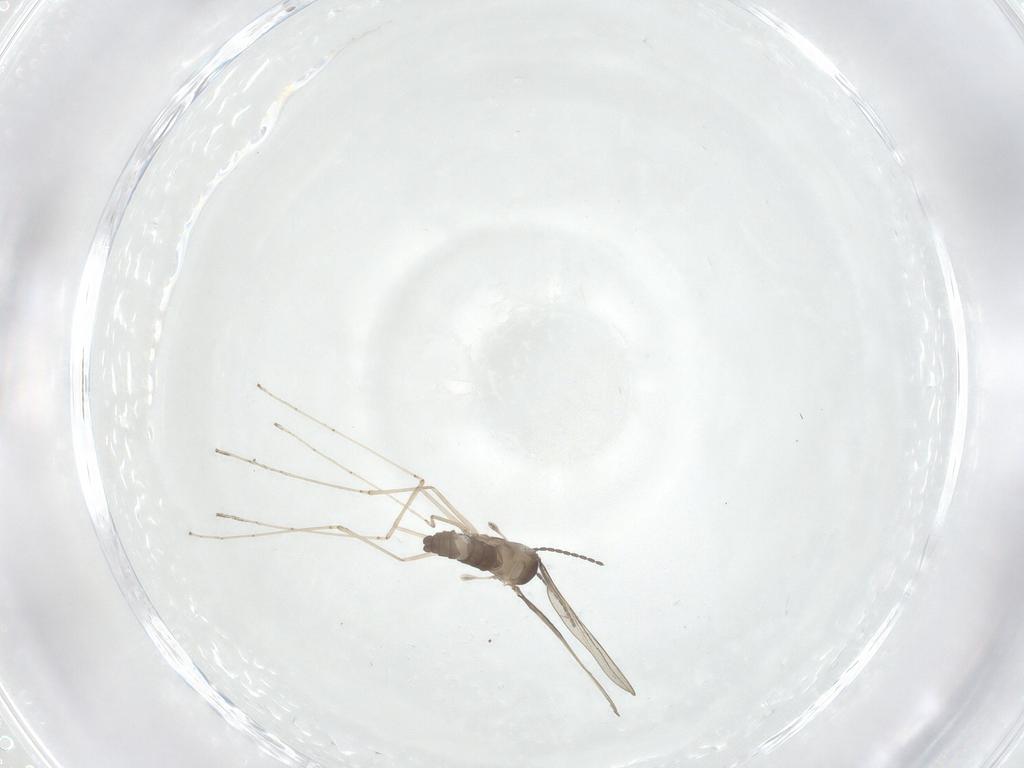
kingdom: Animalia
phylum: Arthropoda
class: Insecta
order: Diptera
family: Cecidomyiidae
